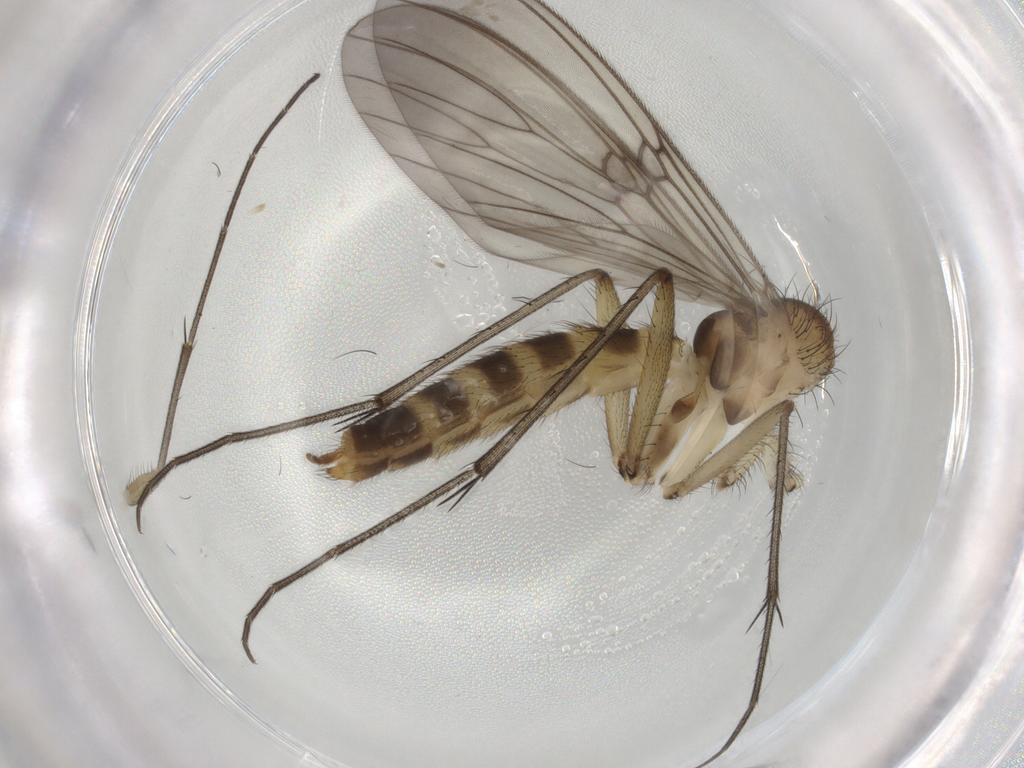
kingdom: Animalia
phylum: Arthropoda
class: Insecta
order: Diptera
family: Mycetophilidae
